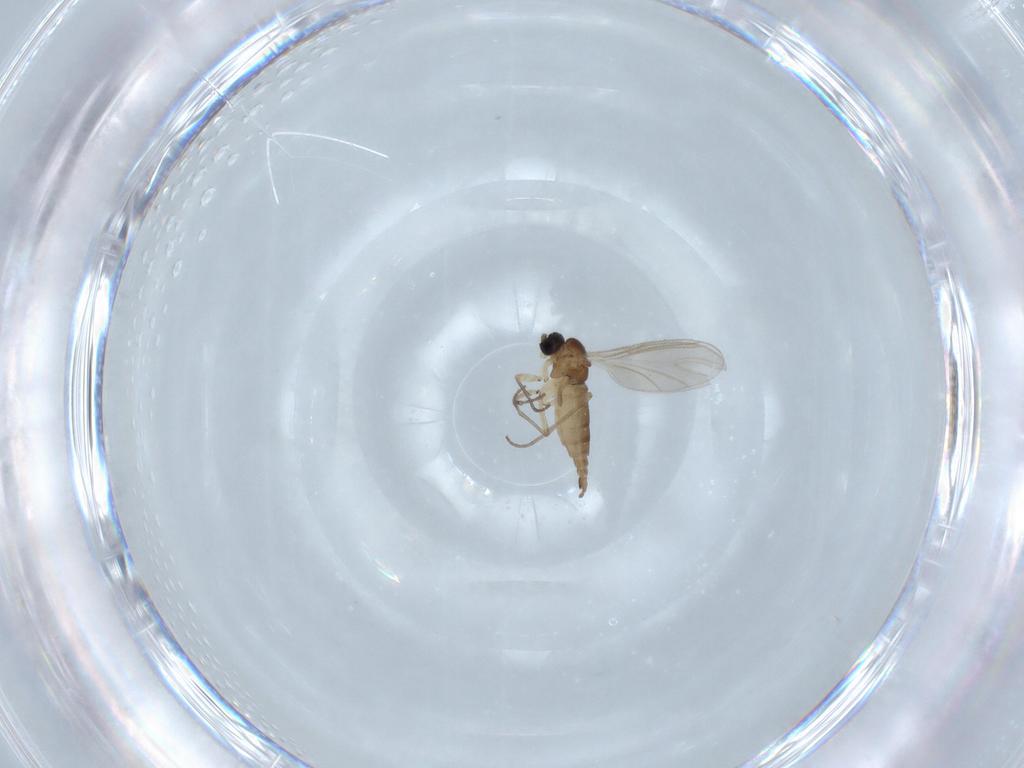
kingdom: Animalia
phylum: Arthropoda
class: Insecta
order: Diptera
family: Sciaridae
